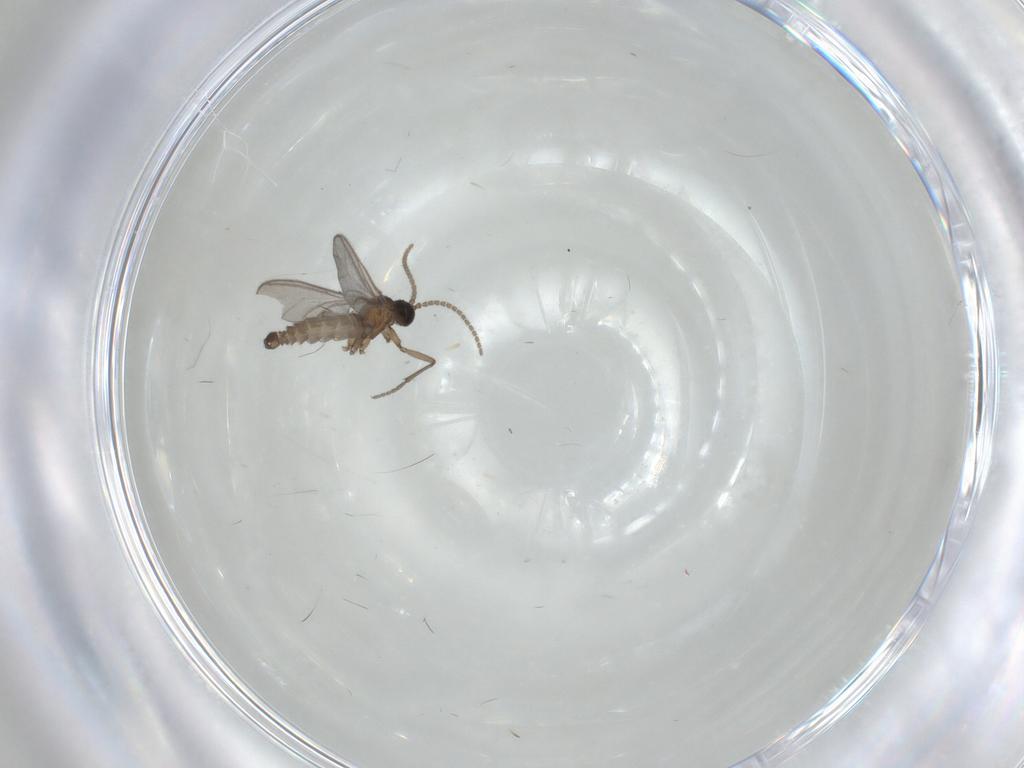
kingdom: Animalia
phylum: Arthropoda
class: Insecta
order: Diptera
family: Sciaridae
